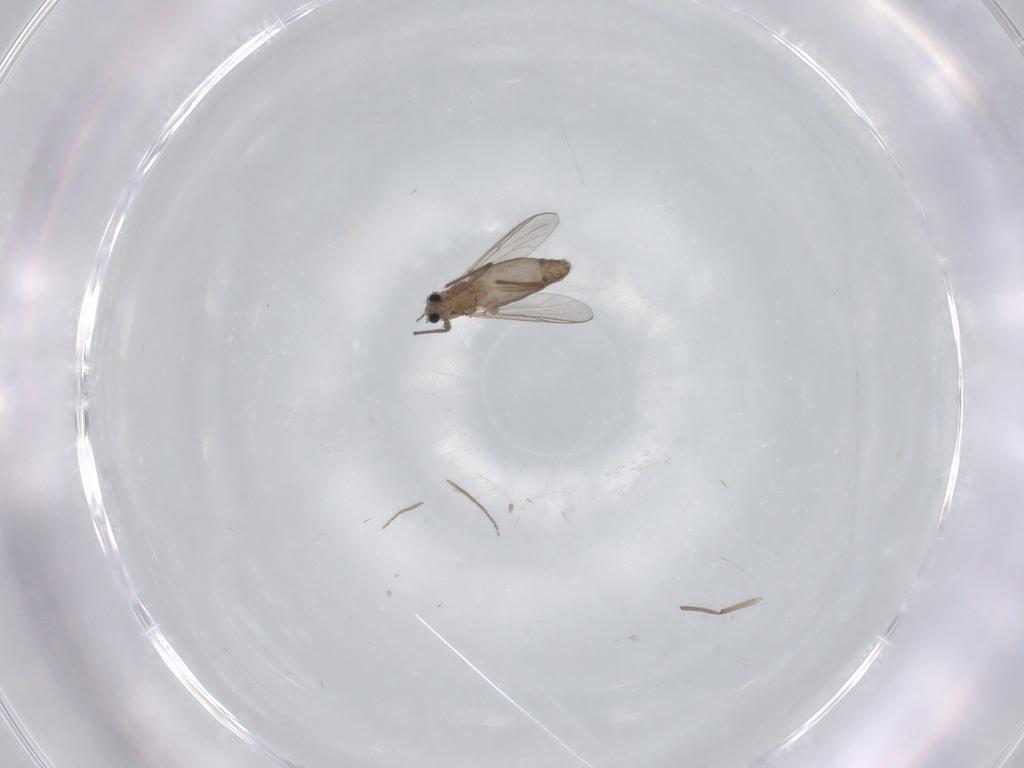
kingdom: Animalia
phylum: Arthropoda
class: Insecta
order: Diptera
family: Chironomidae
